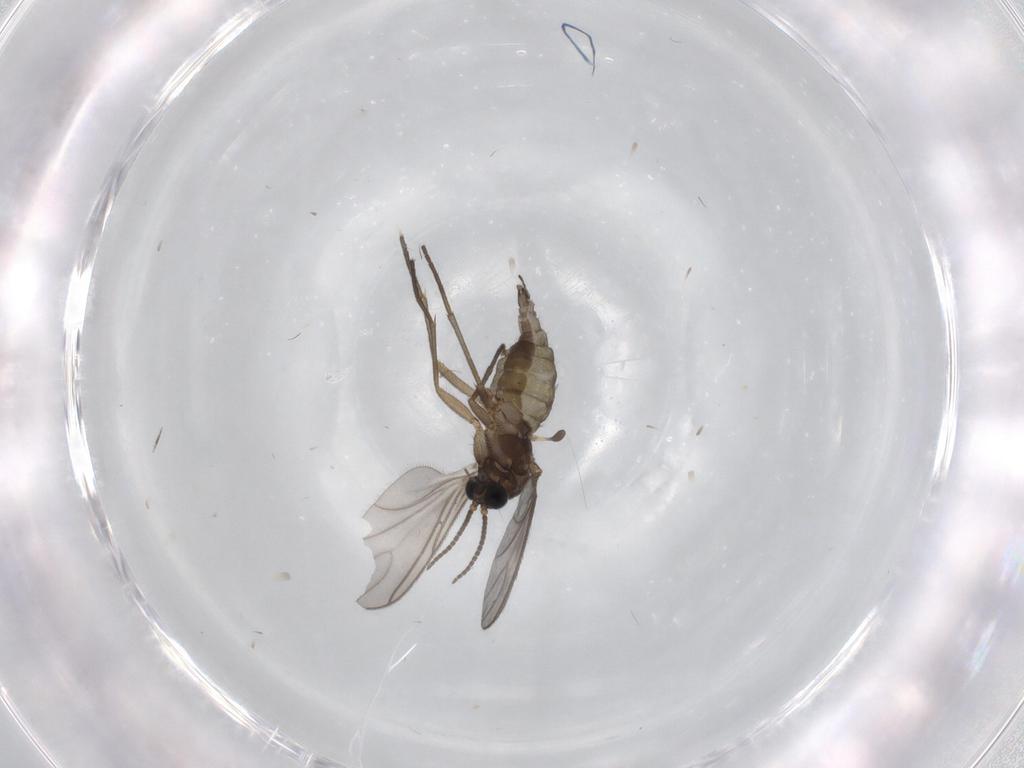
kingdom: Animalia
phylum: Arthropoda
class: Insecta
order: Diptera
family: Sciaridae
